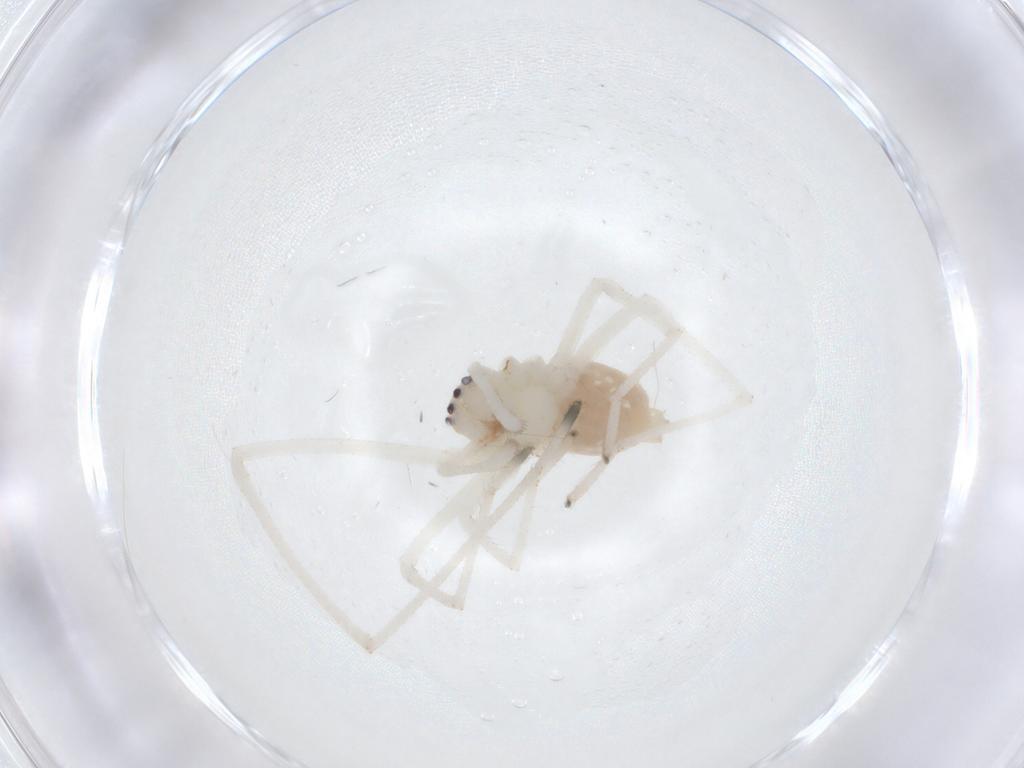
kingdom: Animalia
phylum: Arthropoda
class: Arachnida
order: Araneae
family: Cheiracanthiidae
